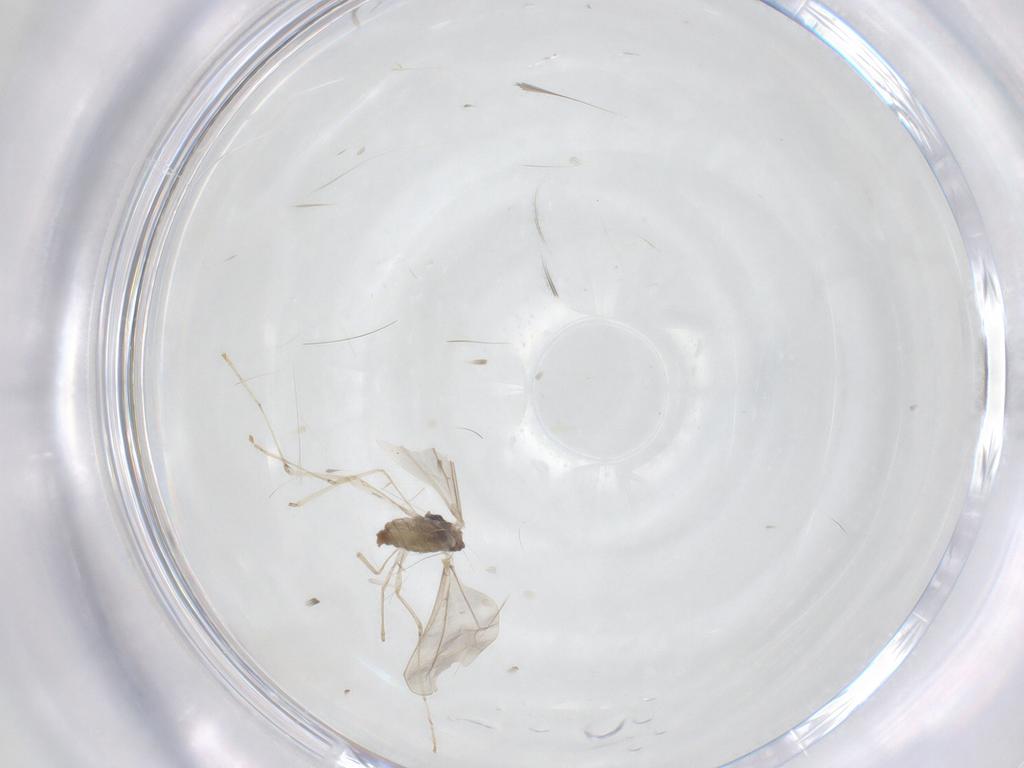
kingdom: Animalia
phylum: Arthropoda
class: Insecta
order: Diptera
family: Cecidomyiidae
